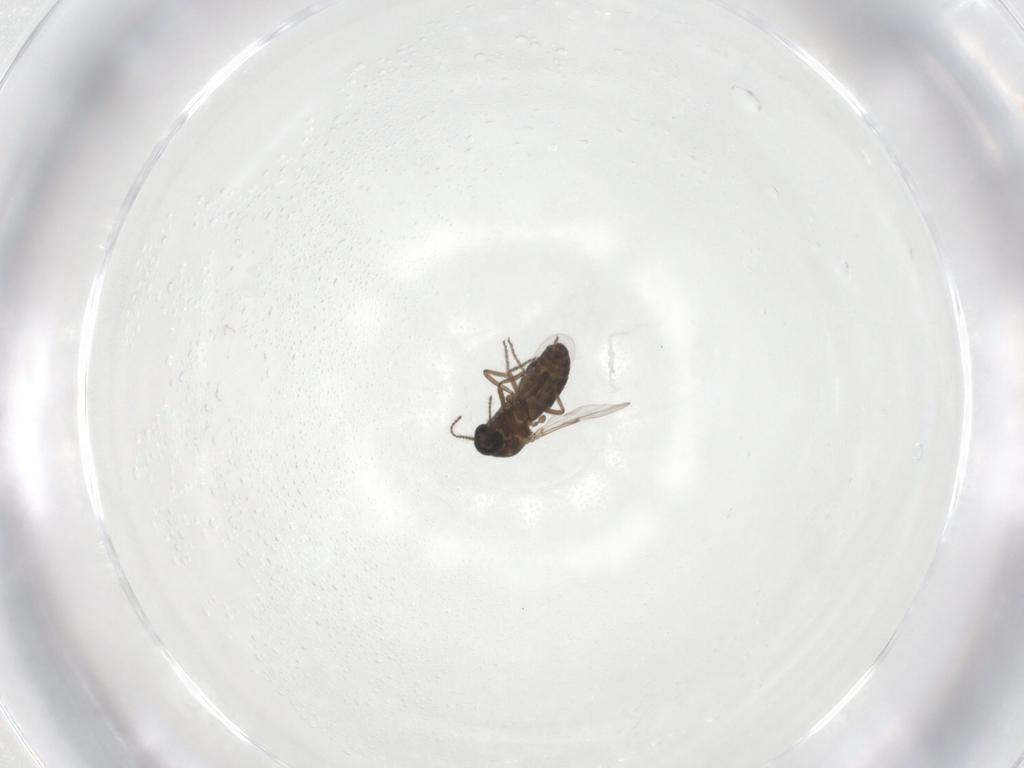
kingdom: Animalia
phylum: Arthropoda
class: Insecta
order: Diptera
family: Ceratopogonidae
